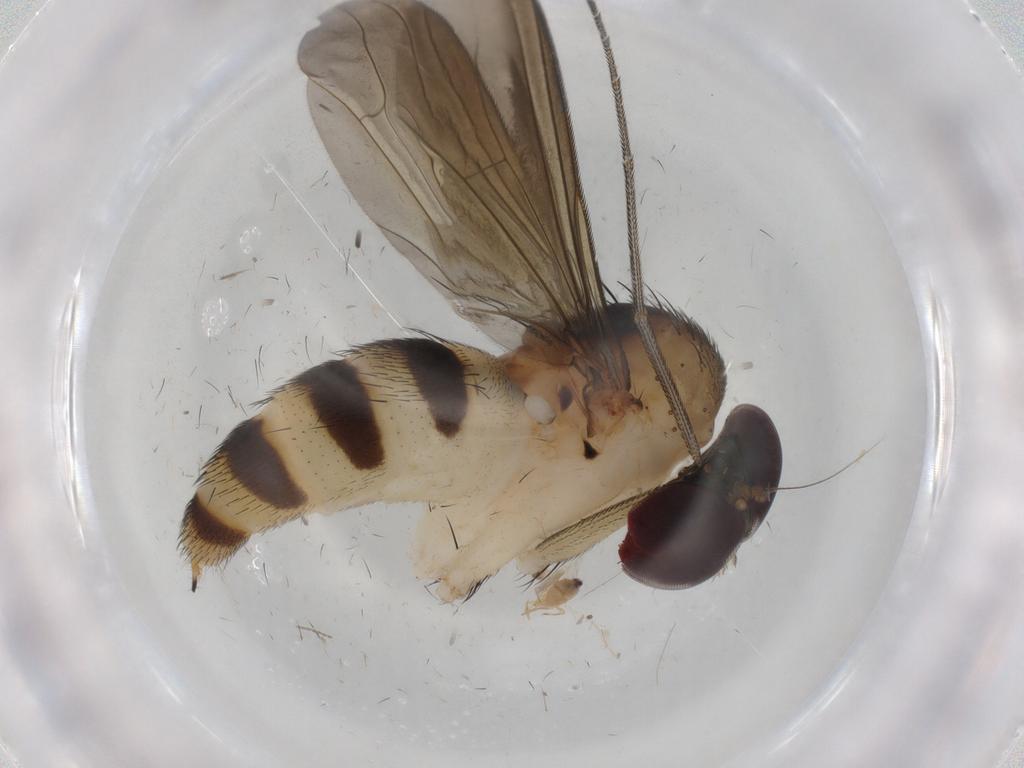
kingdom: Animalia
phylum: Arthropoda
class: Insecta
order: Diptera
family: Dolichopodidae
